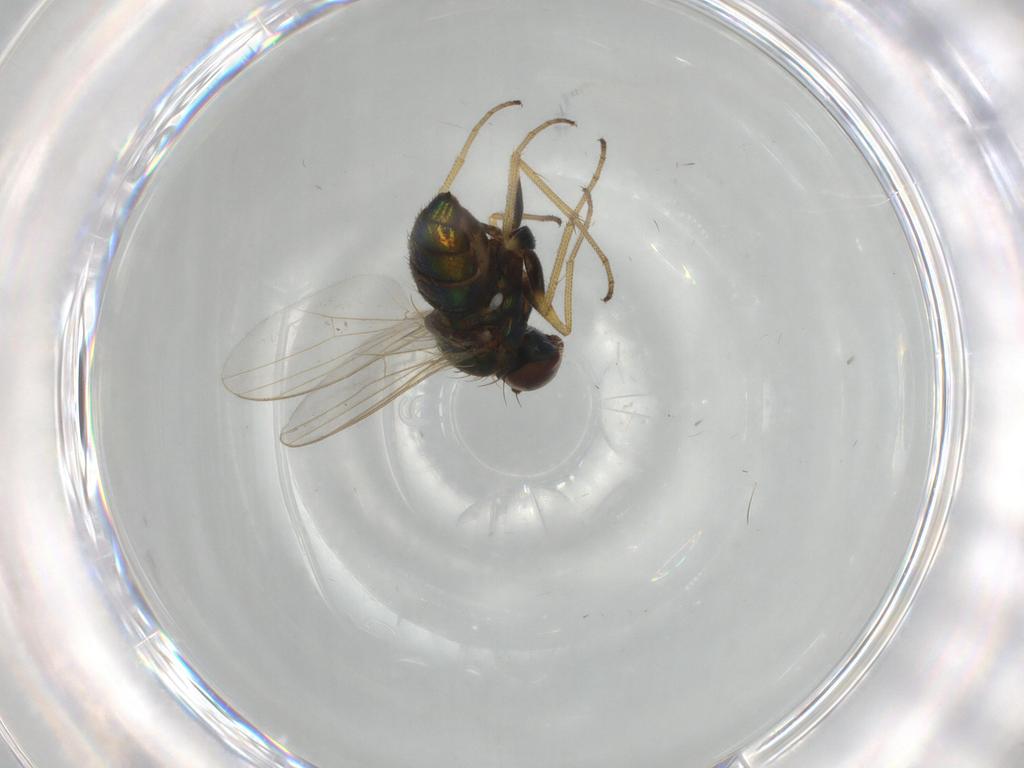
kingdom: Animalia
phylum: Arthropoda
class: Insecta
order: Diptera
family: Dolichopodidae
